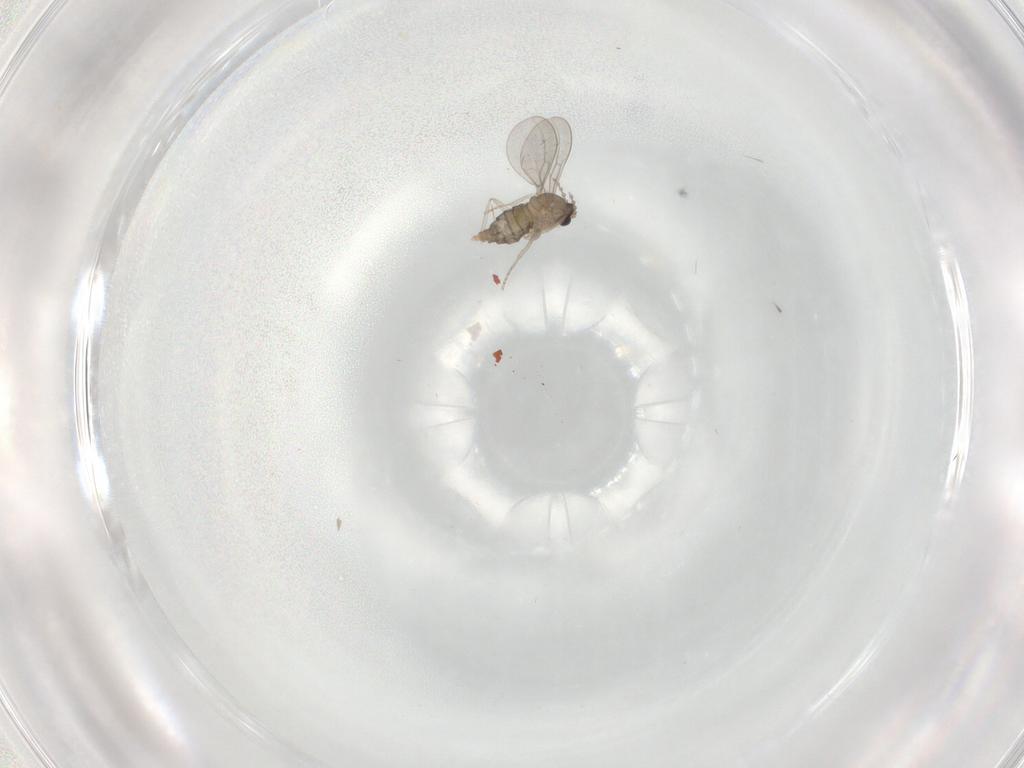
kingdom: Animalia
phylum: Arthropoda
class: Insecta
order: Diptera
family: Cecidomyiidae
